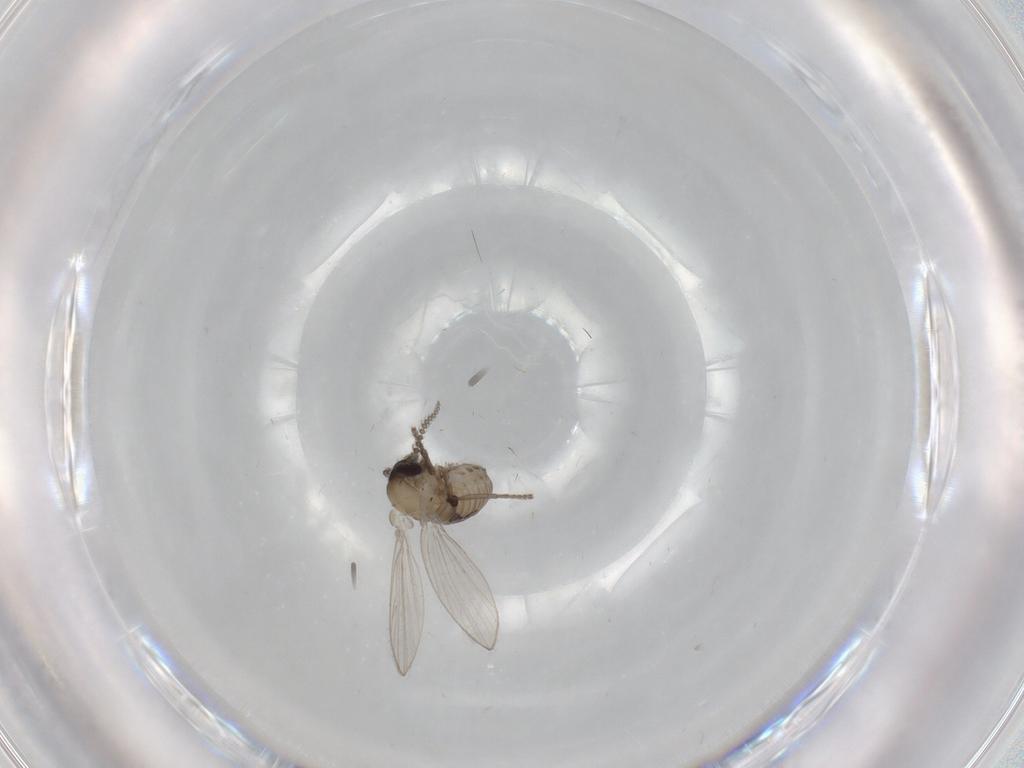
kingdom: Animalia
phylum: Arthropoda
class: Insecta
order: Diptera
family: Psychodidae
